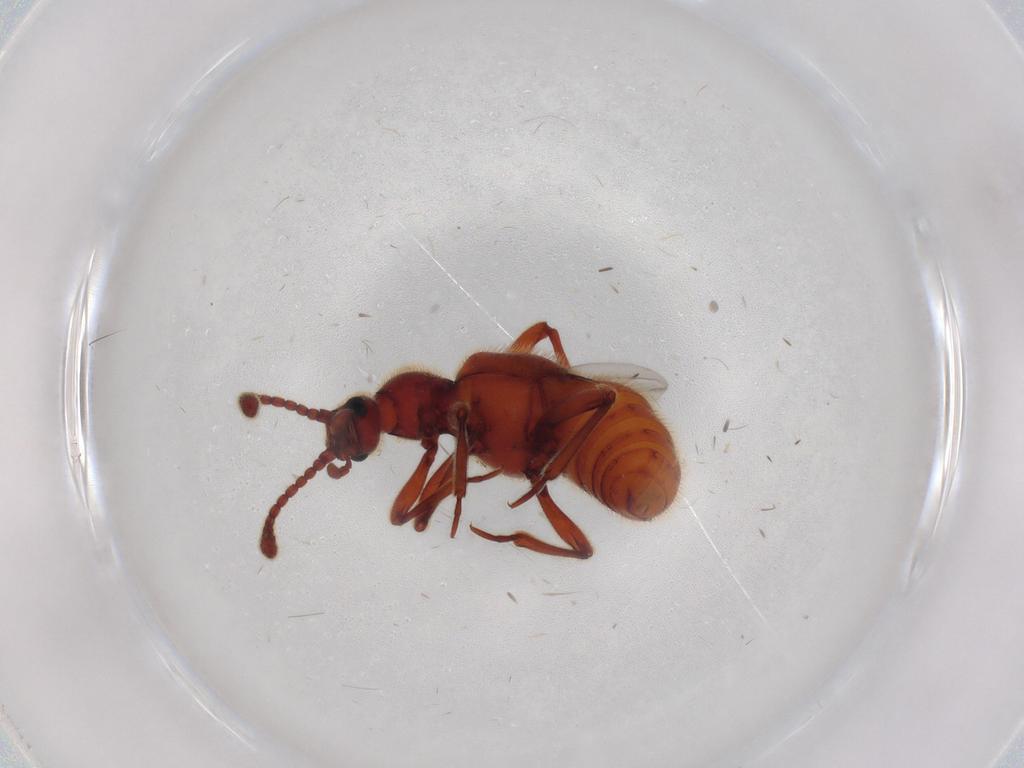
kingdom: Animalia
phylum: Arthropoda
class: Insecta
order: Coleoptera
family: Staphylinidae
